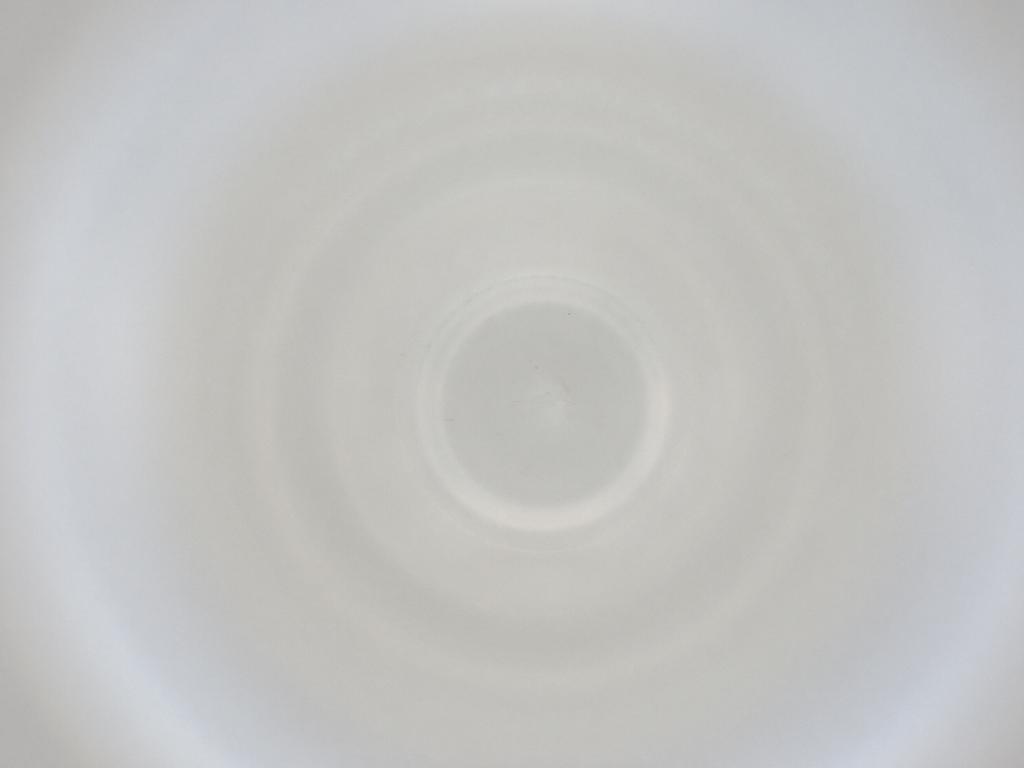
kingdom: Animalia
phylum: Arthropoda
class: Insecta
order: Diptera
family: Cecidomyiidae
